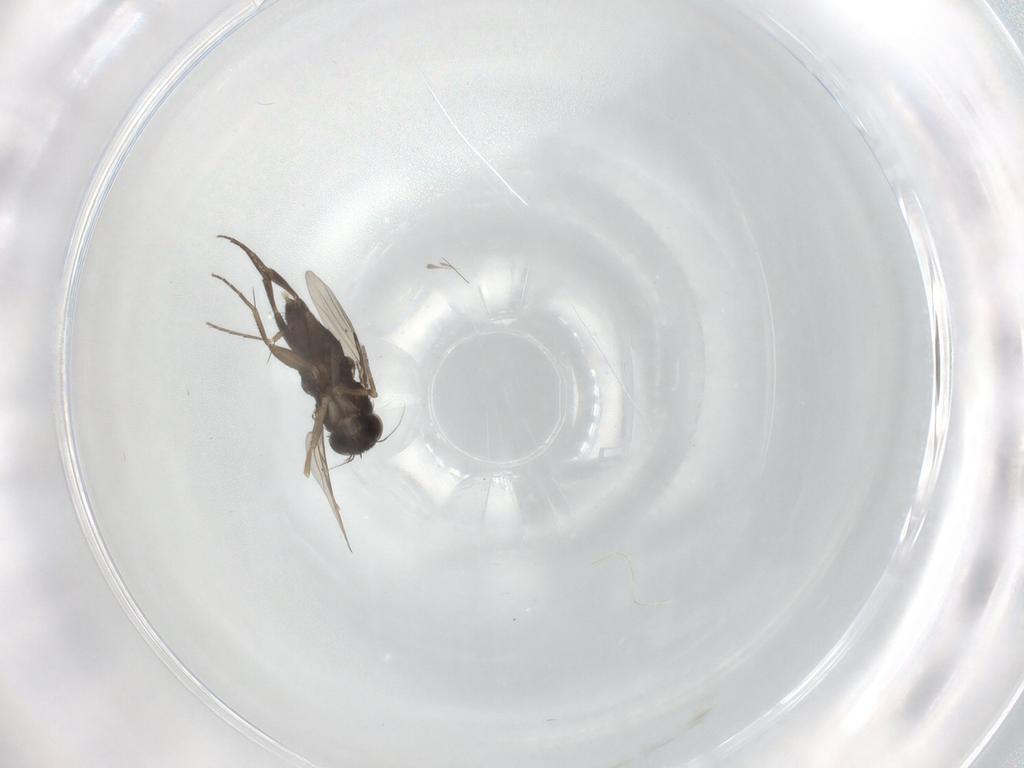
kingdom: Animalia
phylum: Arthropoda
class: Insecta
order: Diptera
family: Phoridae
